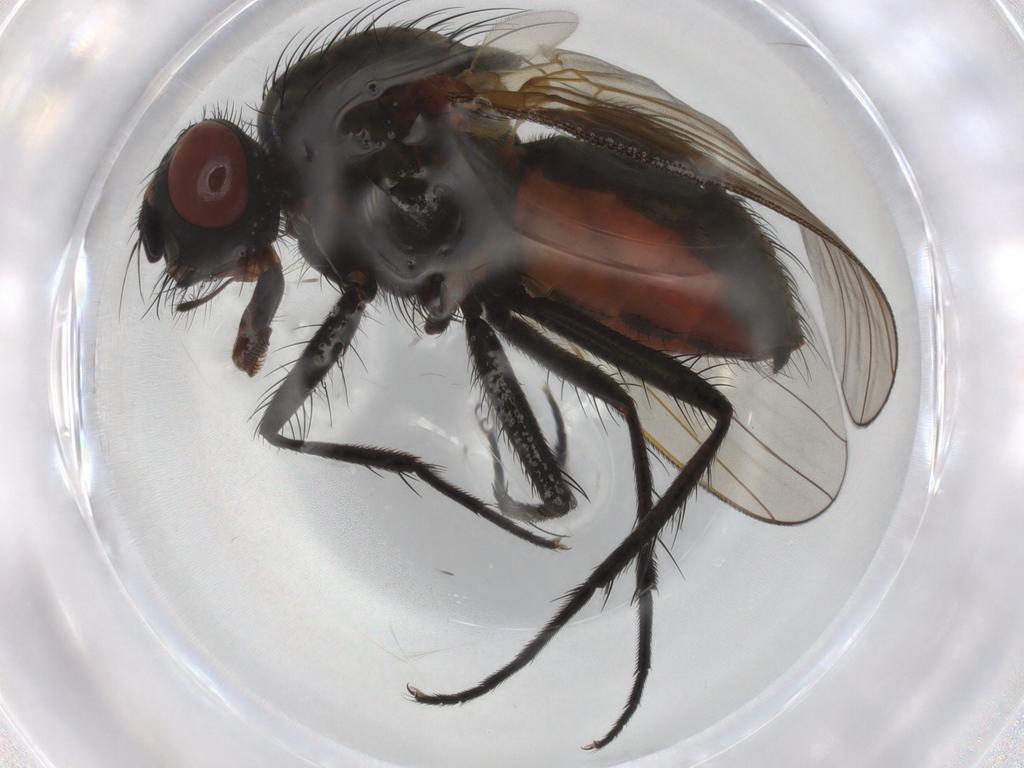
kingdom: Animalia
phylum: Arthropoda
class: Insecta
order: Diptera
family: Anthomyiidae
